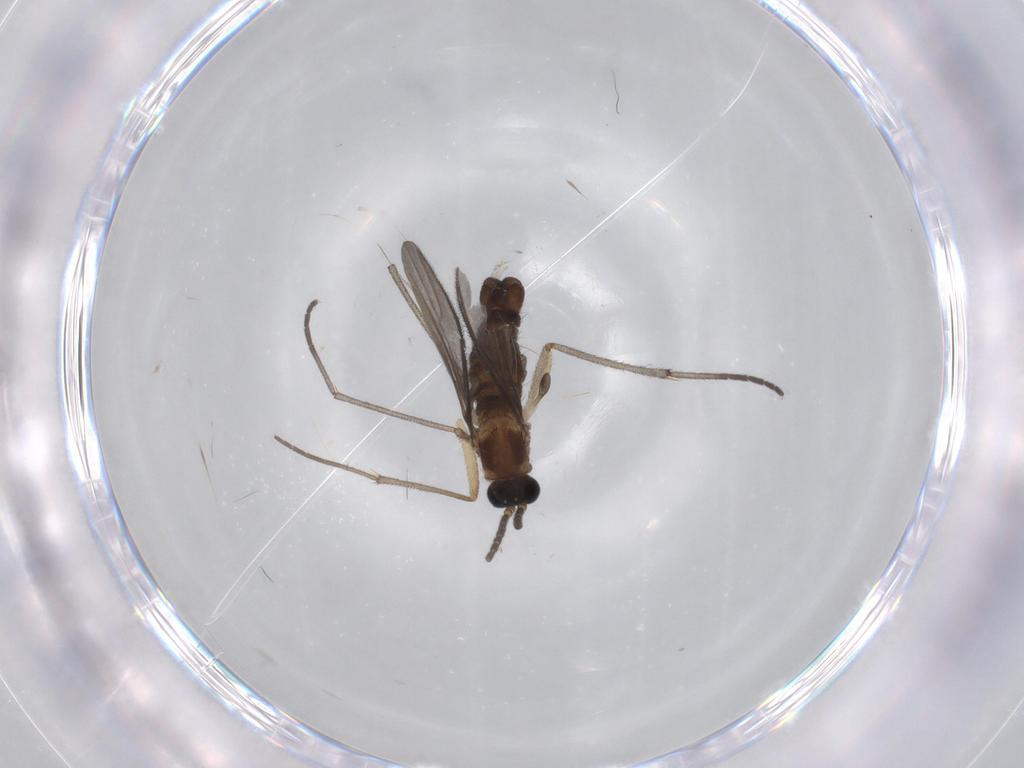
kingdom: Animalia
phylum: Arthropoda
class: Insecta
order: Diptera
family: Sciaridae
